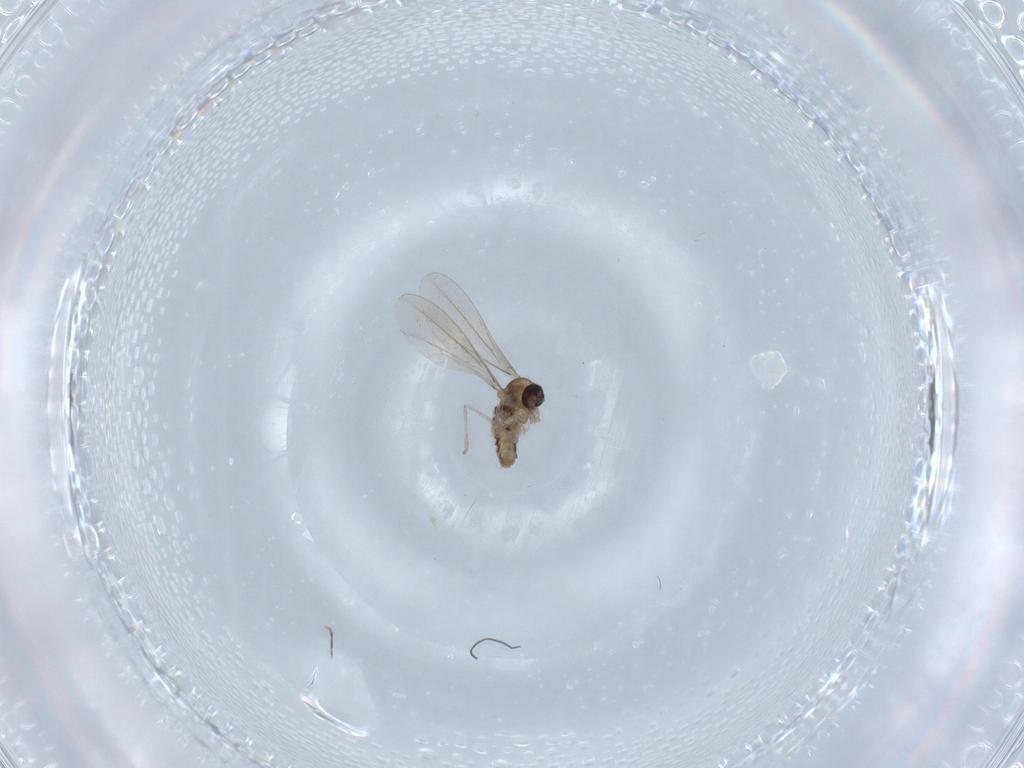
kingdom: Animalia
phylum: Arthropoda
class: Insecta
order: Diptera
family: Cecidomyiidae
